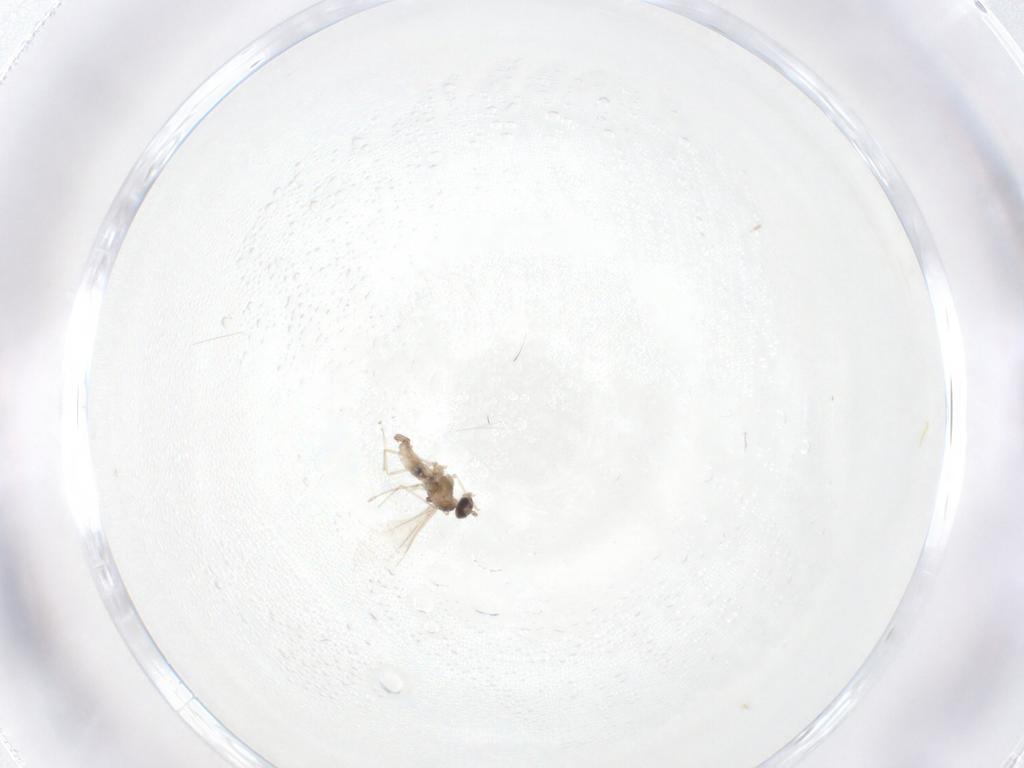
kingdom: Animalia
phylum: Arthropoda
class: Insecta
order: Diptera
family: Cecidomyiidae
